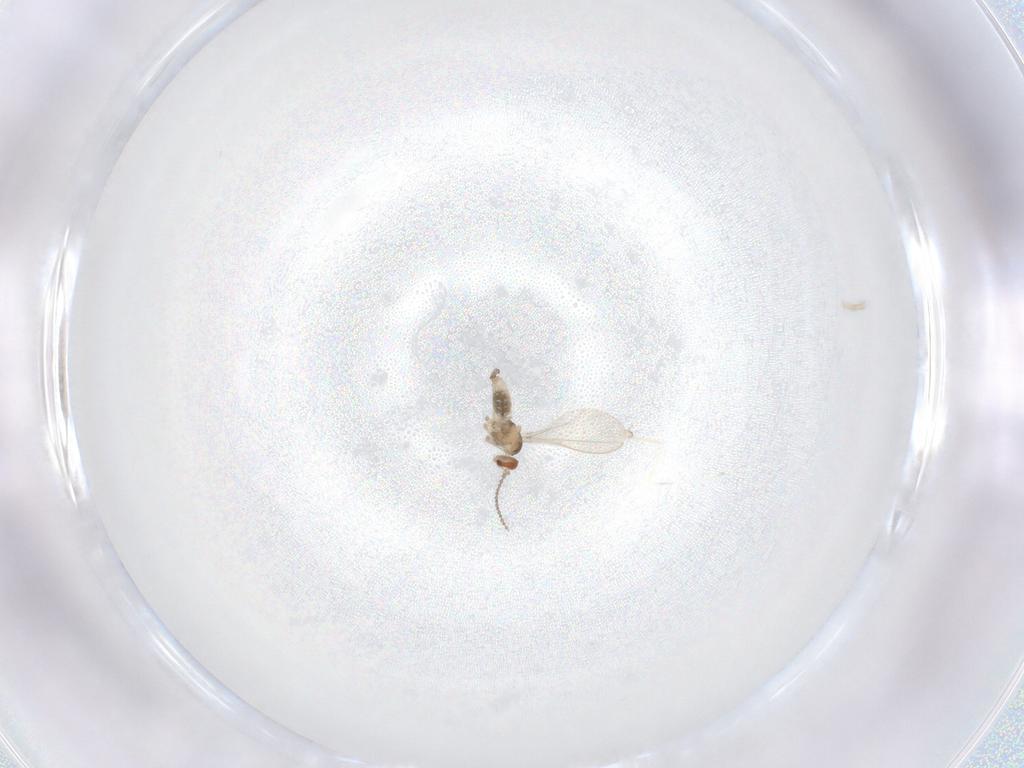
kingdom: Animalia
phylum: Arthropoda
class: Insecta
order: Diptera
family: Cecidomyiidae
